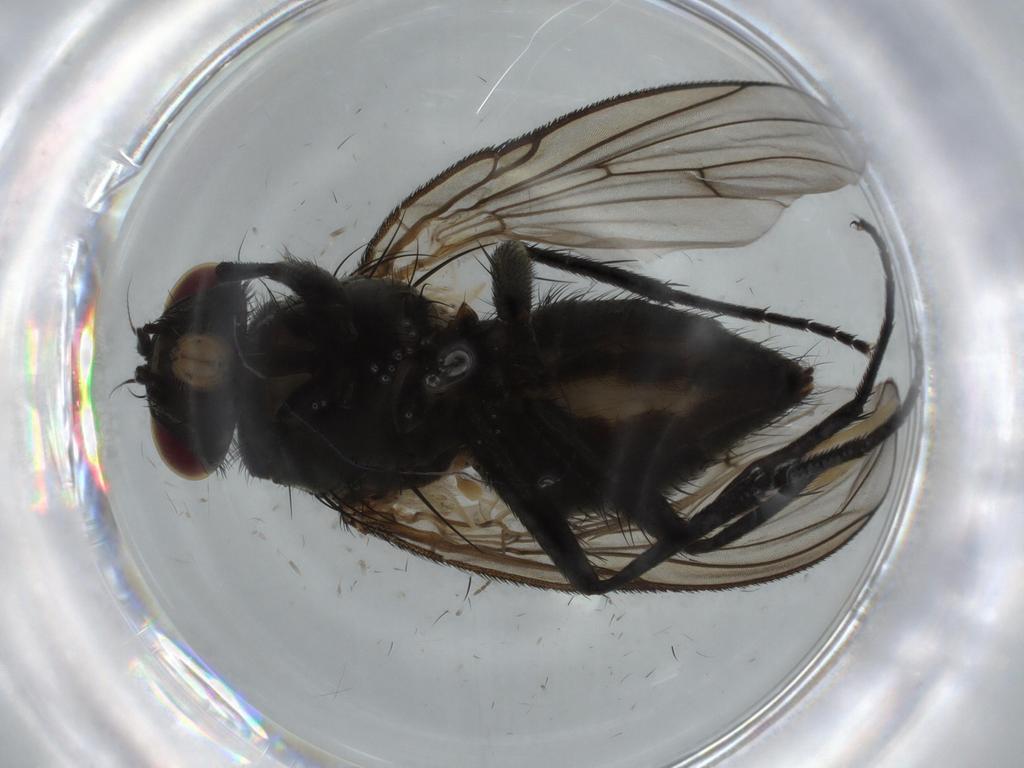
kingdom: Animalia
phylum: Arthropoda
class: Insecta
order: Diptera
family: Muscidae
